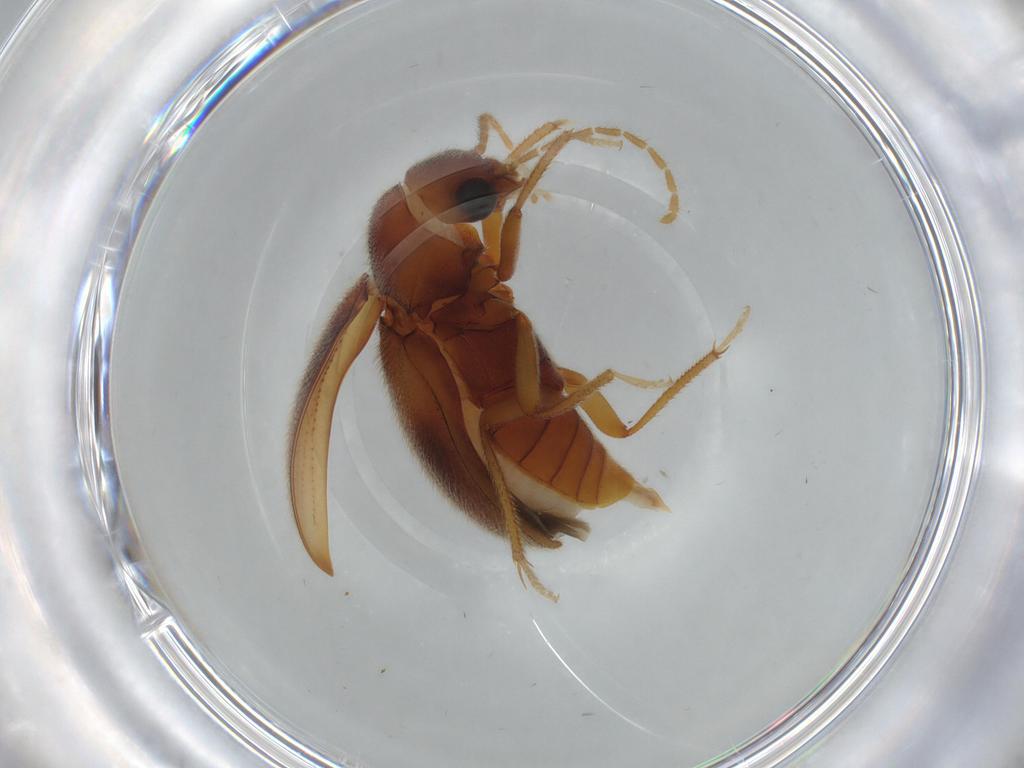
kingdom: Animalia
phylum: Arthropoda
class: Insecta
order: Coleoptera
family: Ptilodactylidae
